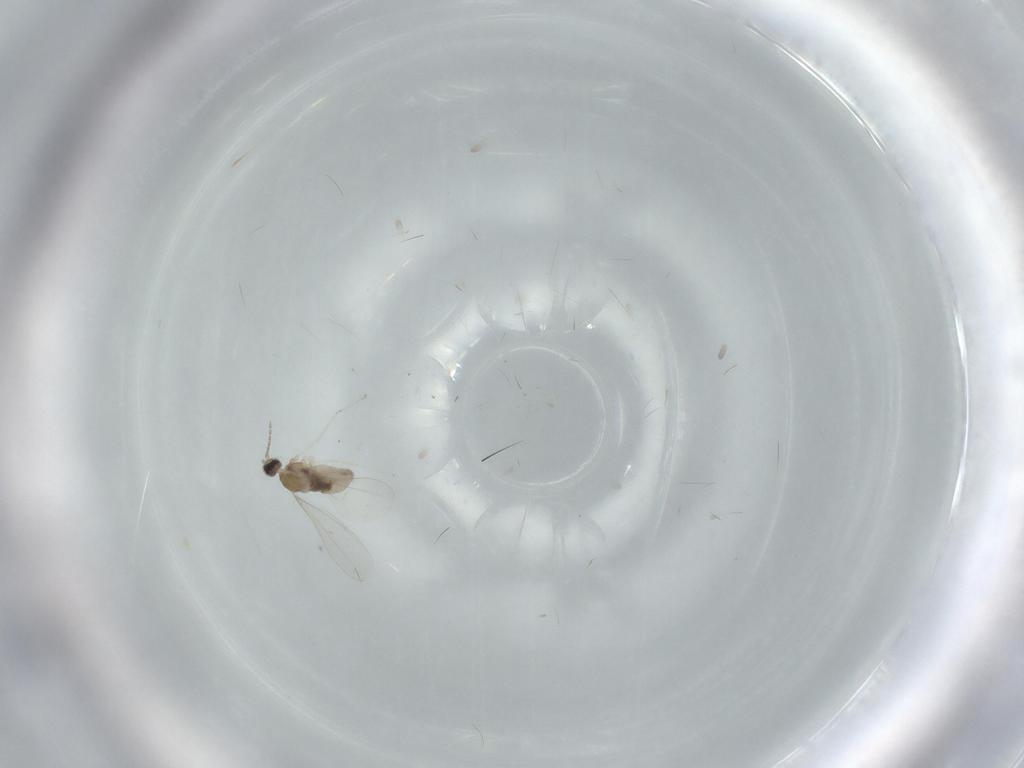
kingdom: Animalia
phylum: Arthropoda
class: Insecta
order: Diptera
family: Cecidomyiidae
